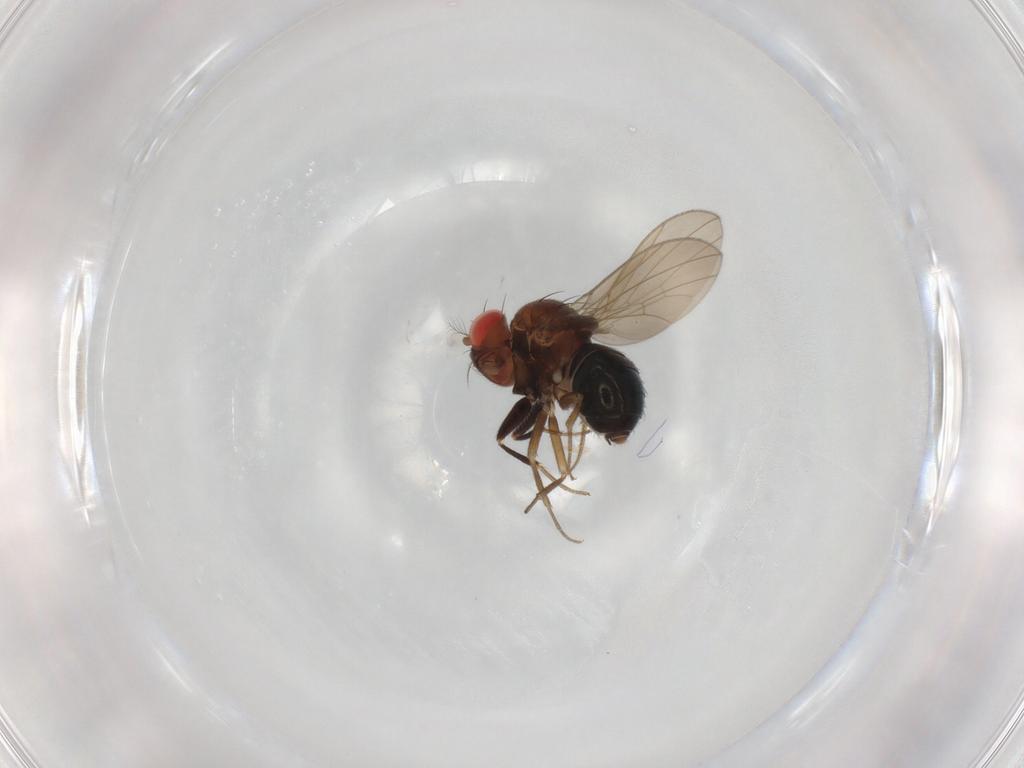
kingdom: Animalia
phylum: Arthropoda
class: Insecta
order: Diptera
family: Drosophilidae
